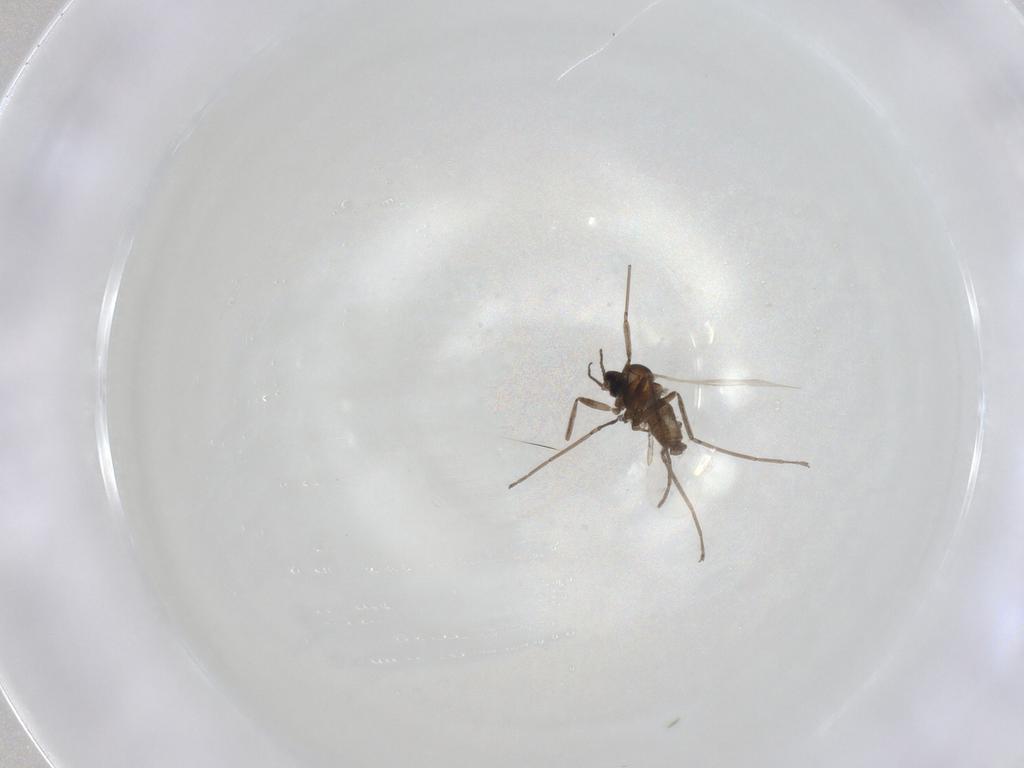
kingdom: Animalia
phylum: Arthropoda
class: Insecta
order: Diptera
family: Cecidomyiidae
